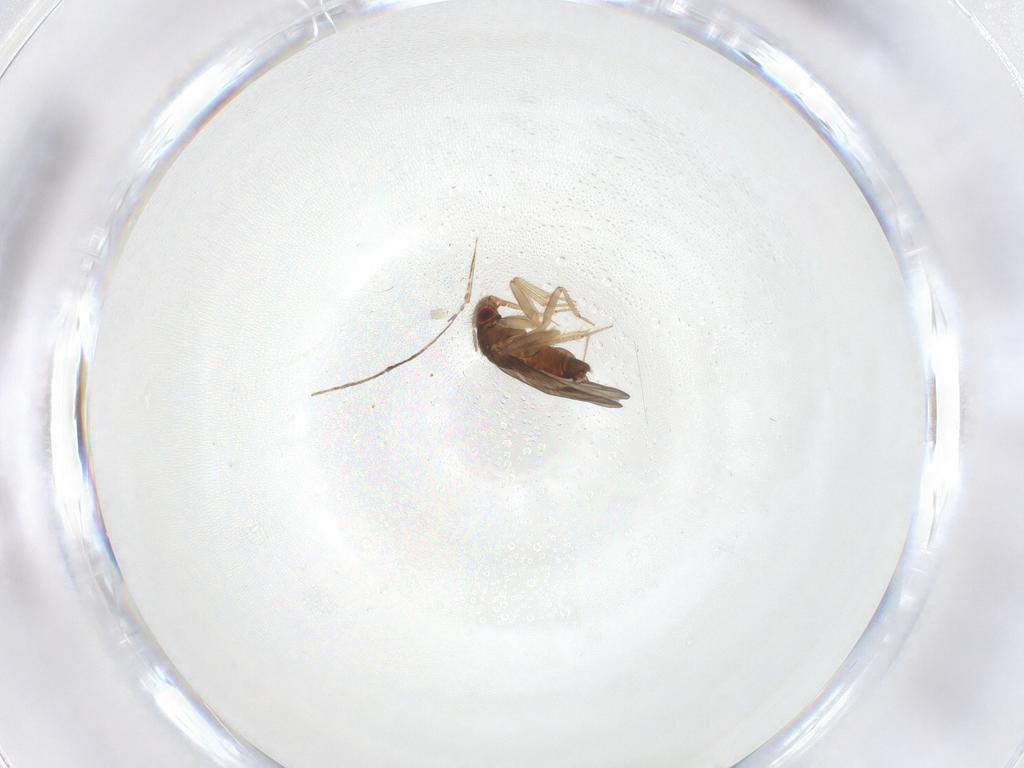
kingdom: Animalia
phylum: Arthropoda
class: Insecta
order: Hemiptera
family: Ceratocombidae
